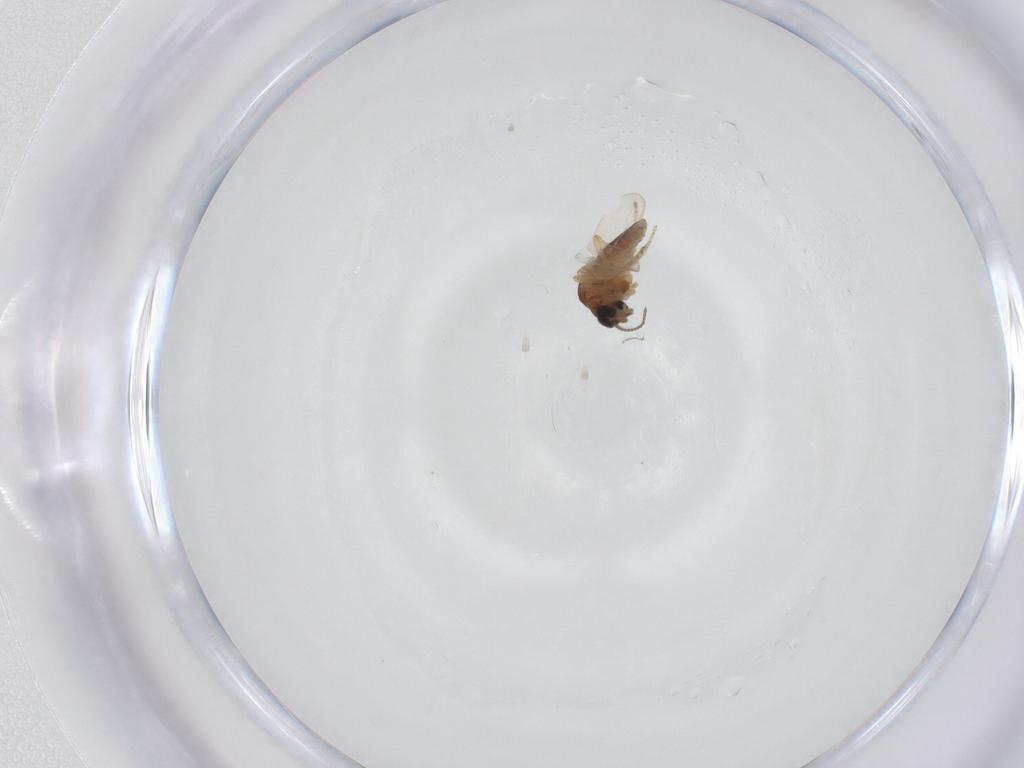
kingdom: Animalia
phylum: Arthropoda
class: Insecta
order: Diptera
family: Ceratopogonidae
